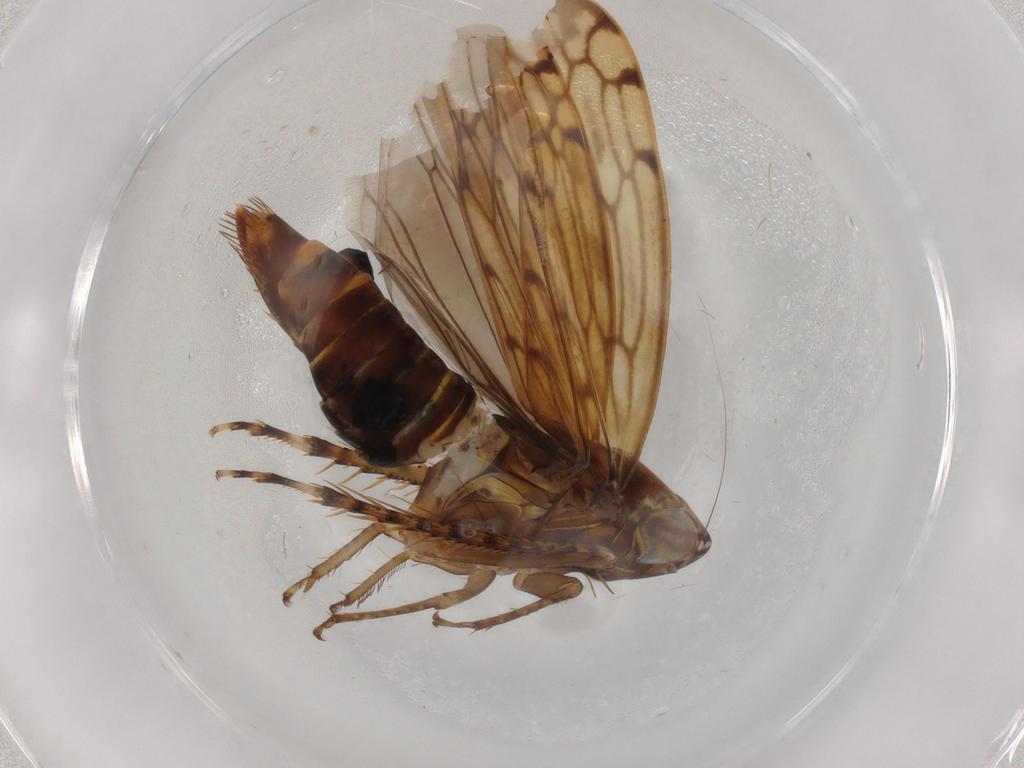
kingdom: Animalia
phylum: Arthropoda
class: Insecta
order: Hemiptera
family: Cicadellidae
